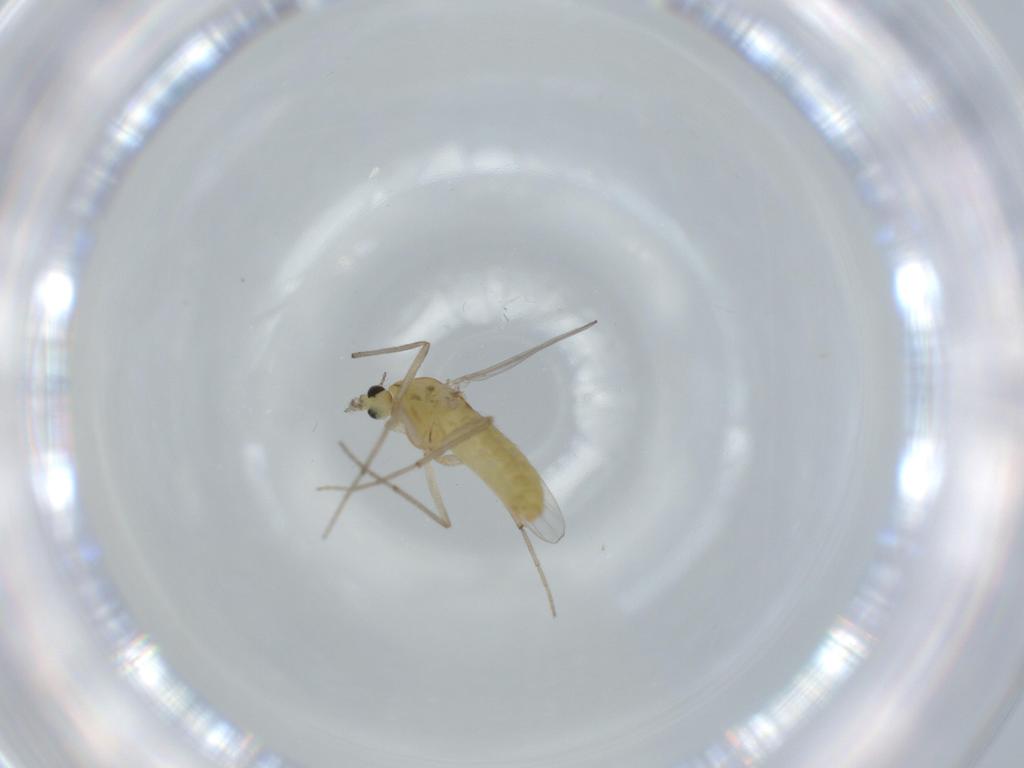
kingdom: Animalia
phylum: Arthropoda
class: Insecta
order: Diptera
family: Chironomidae
